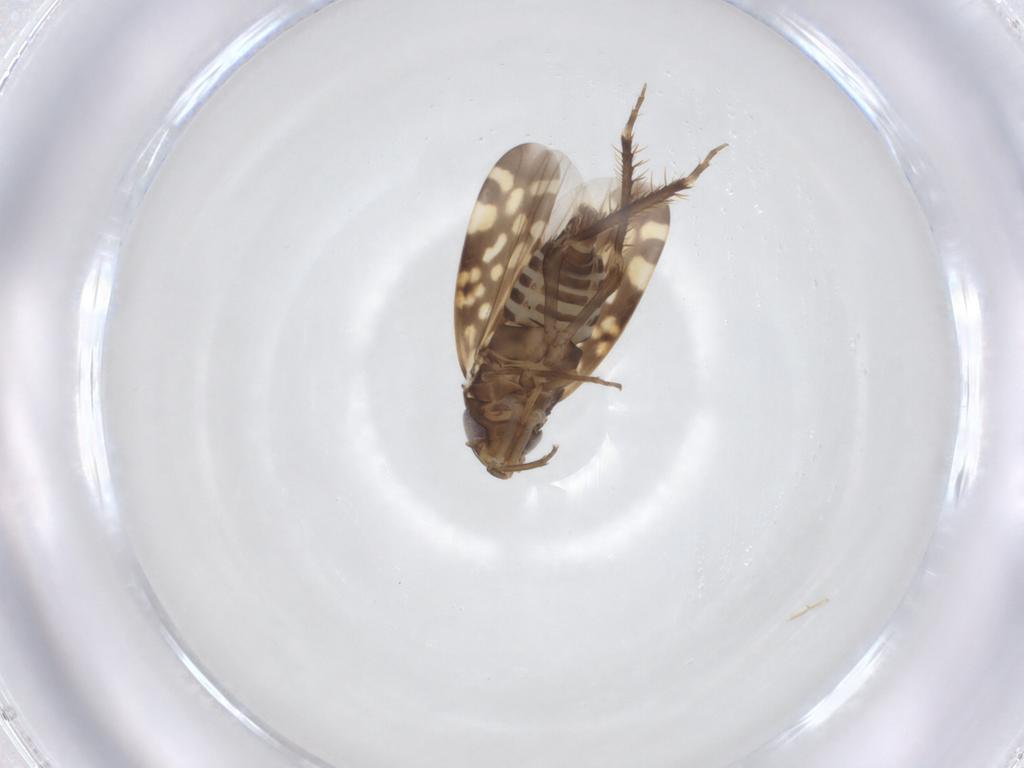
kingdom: Animalia
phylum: Arthropoda
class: Insecta
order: Hemiptera
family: Cicadellidae
